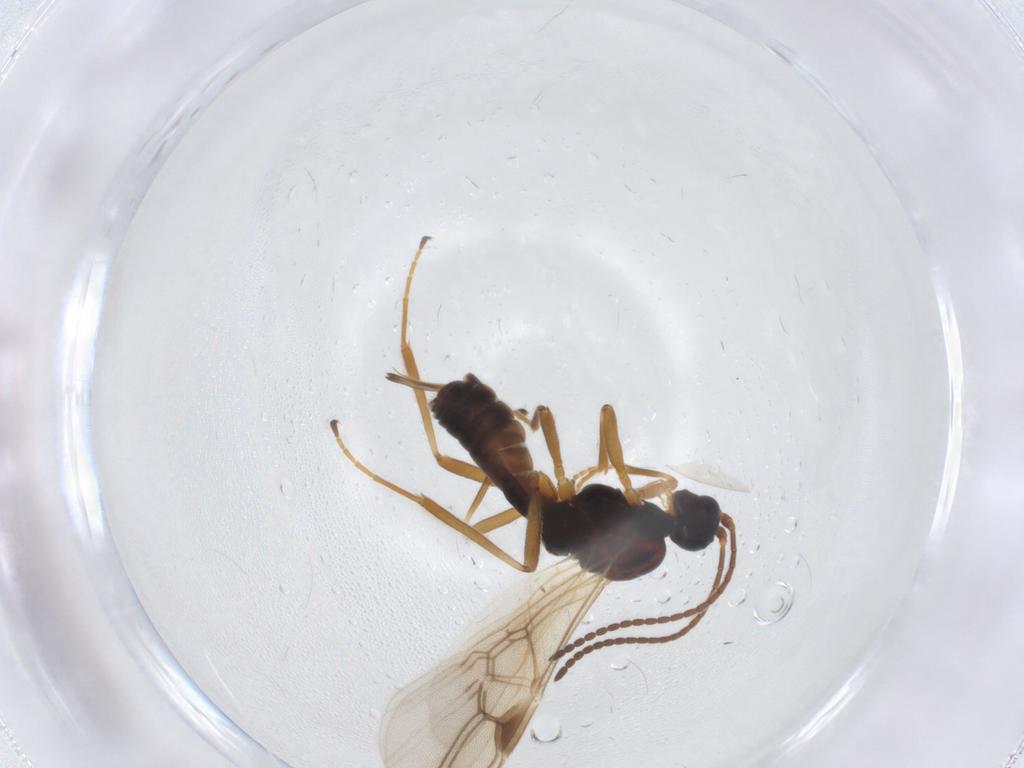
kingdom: Animalia
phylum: Arthropoda
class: Insecta
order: Hymenoptera
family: Braconidae
